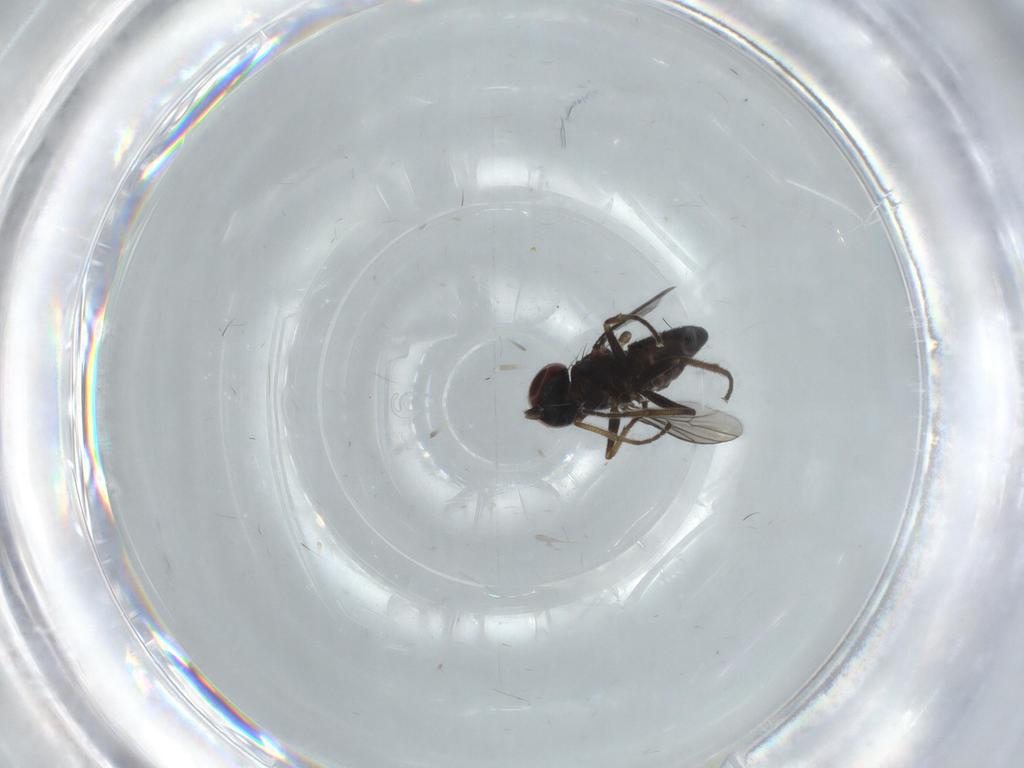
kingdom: Animalia
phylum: Arthropoda
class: Insecta
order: Diptera
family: Dolichopodidae
